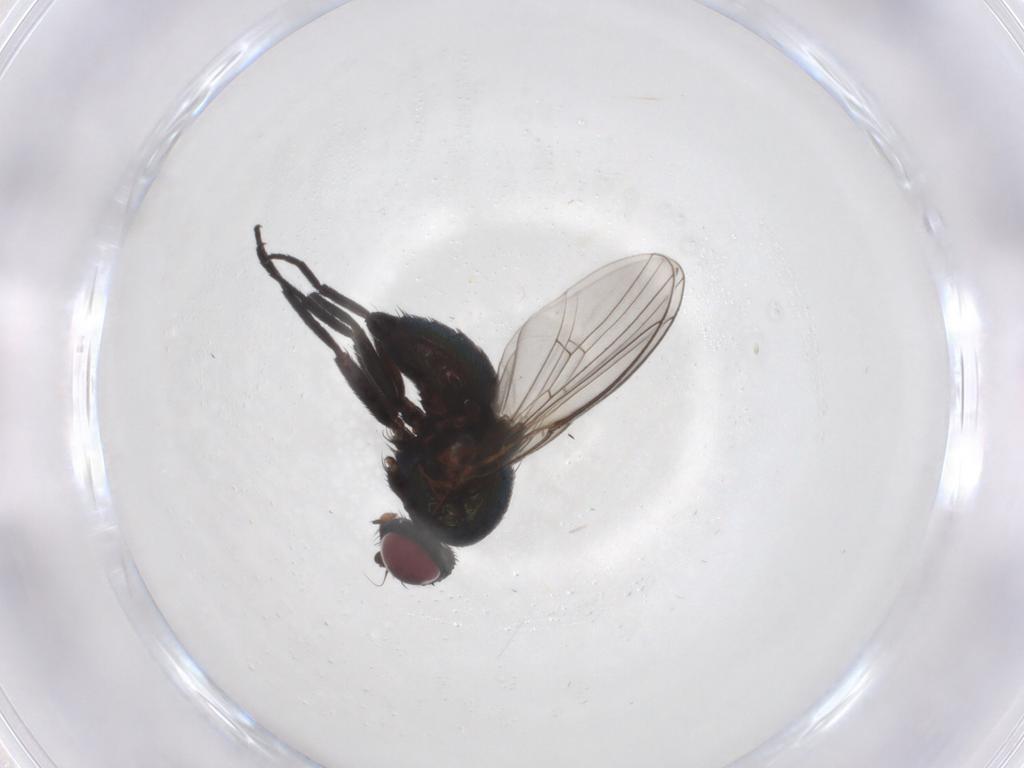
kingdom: Animalia
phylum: Arthropoda
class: Insecta
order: Diptera
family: Agromyzidae
